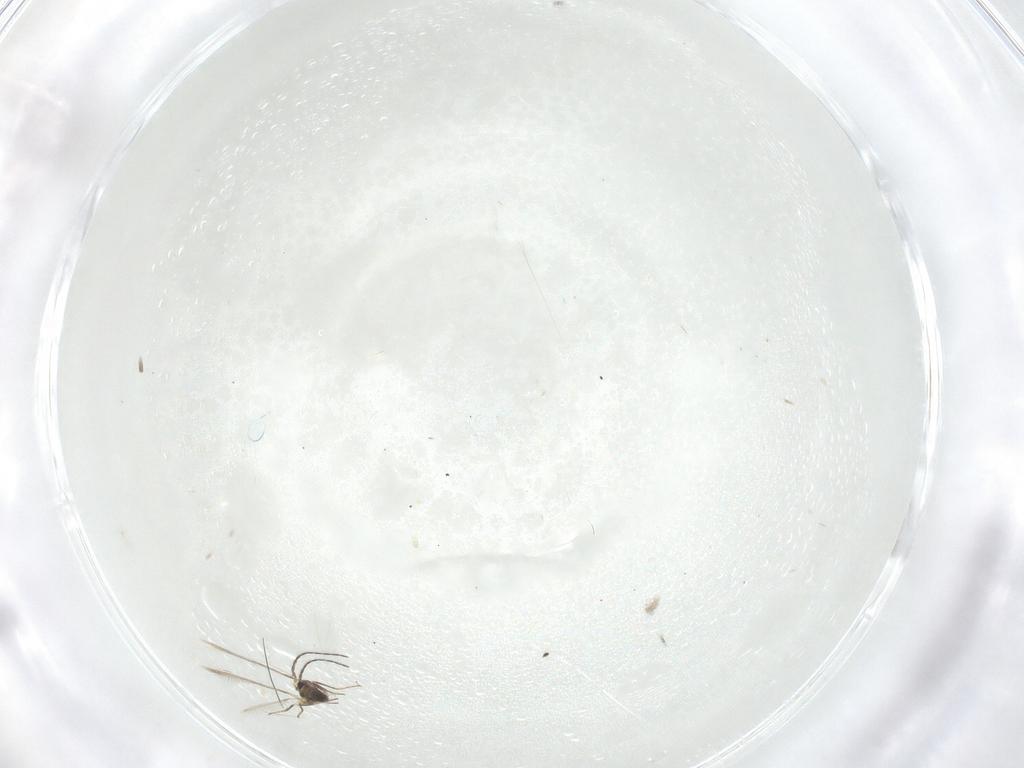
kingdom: Animalia
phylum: Arthropoda
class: Insecta
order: Hymenoptera
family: Mymaridae
